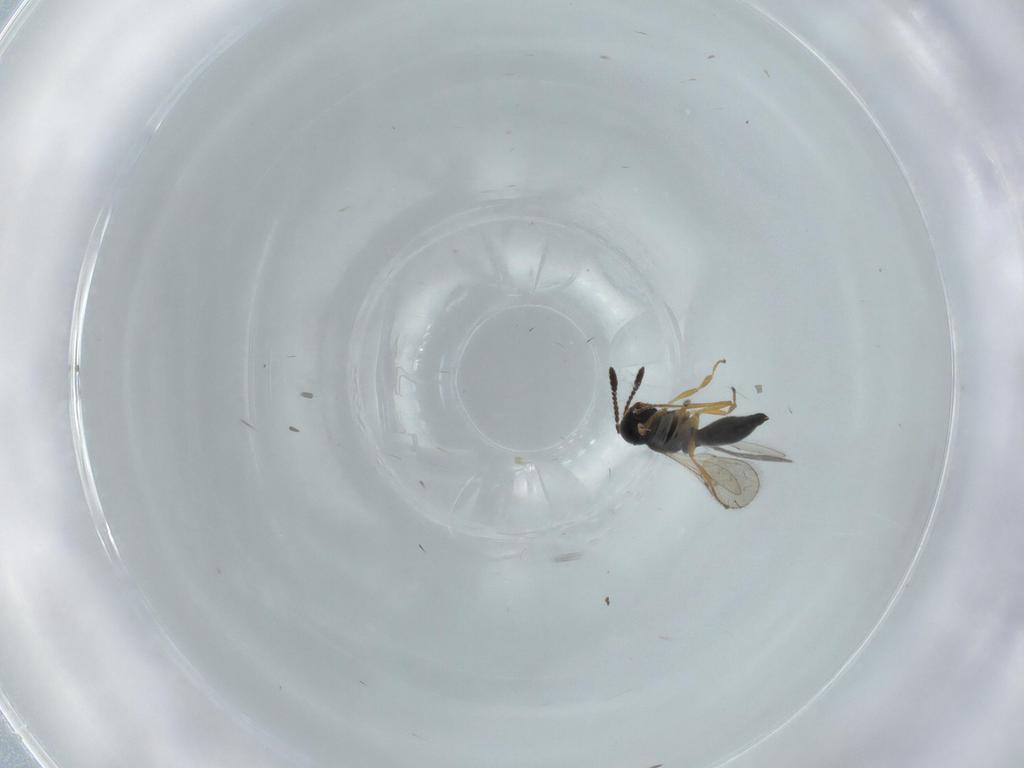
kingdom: Animalia
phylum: Arthropoda
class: Insecta
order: Hymenoptera
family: Scelionidae
